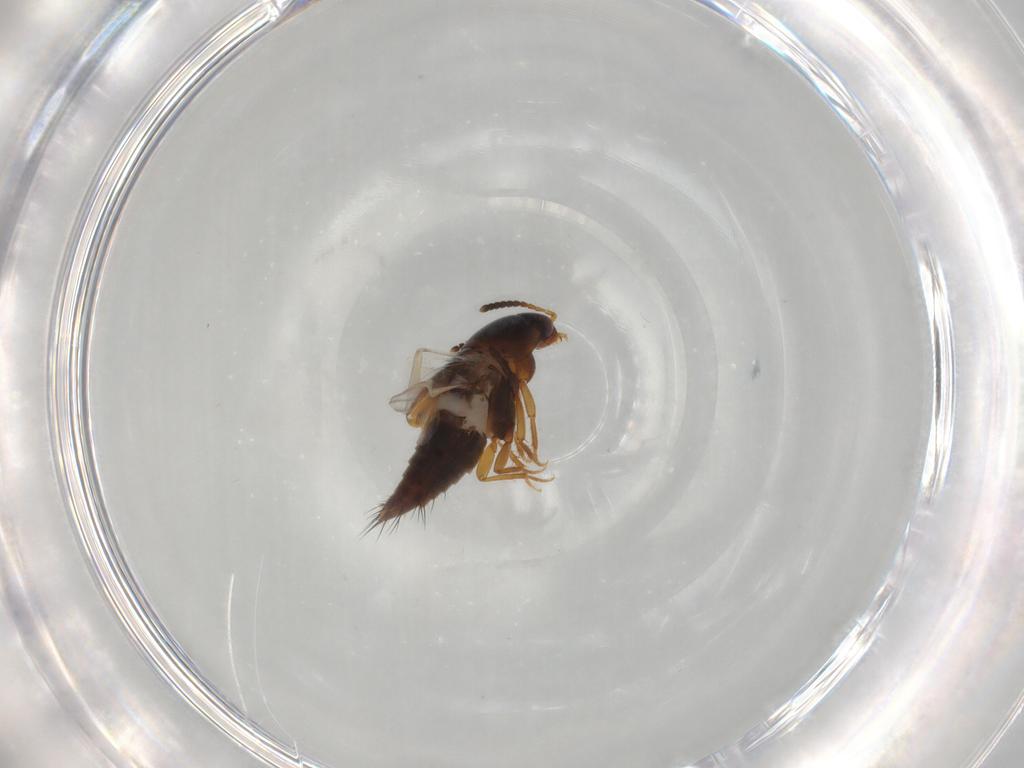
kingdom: Animalia
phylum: Arthropoda
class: Insecta
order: Coleoptera
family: Staphylinidae
